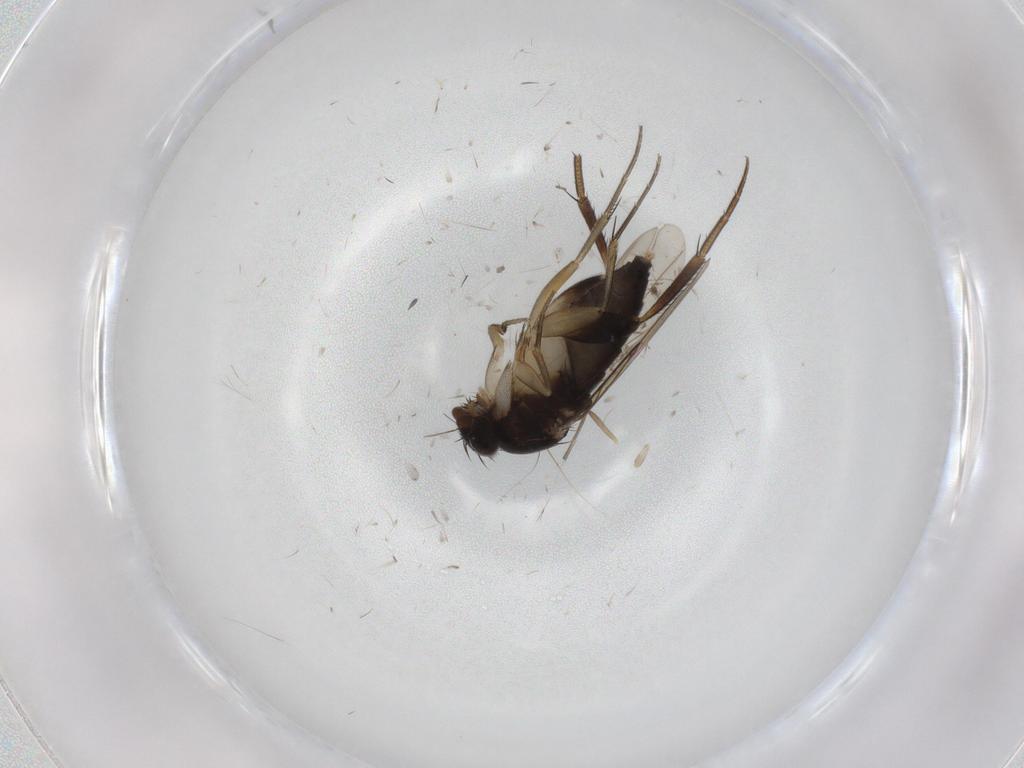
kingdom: Animalia
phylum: Arthropoda
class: Insecta
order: Diptera
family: Phoridae
